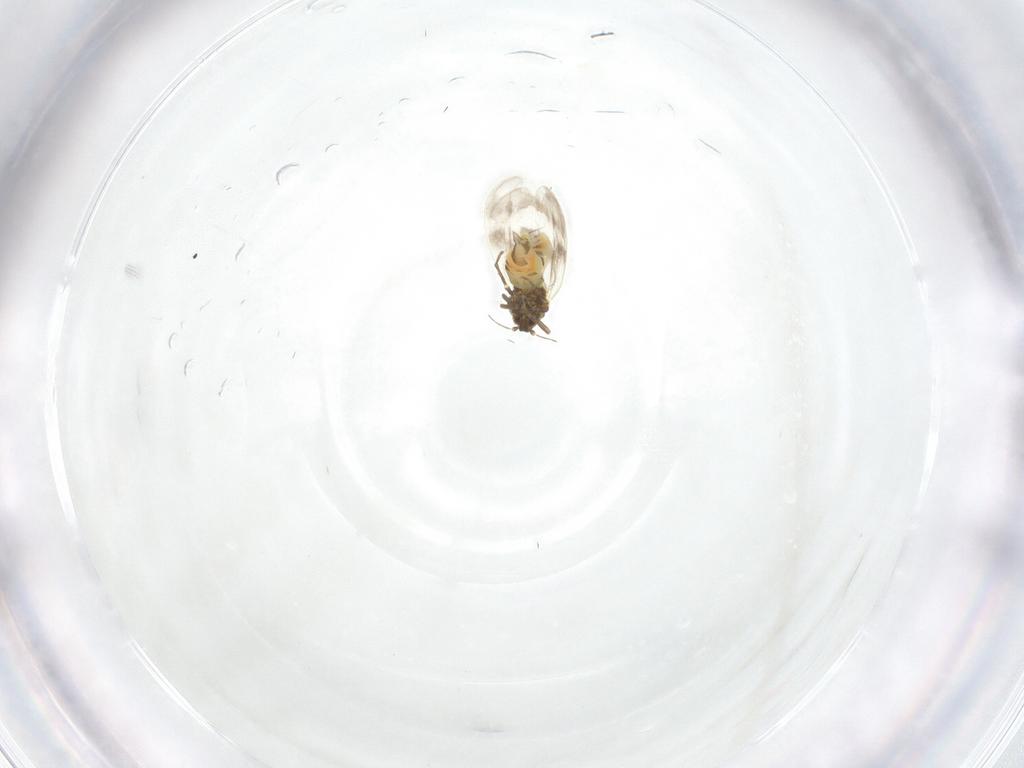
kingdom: Animalia
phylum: Arthropoda
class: Insecta
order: Hemiptera
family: Aleyrodidae
